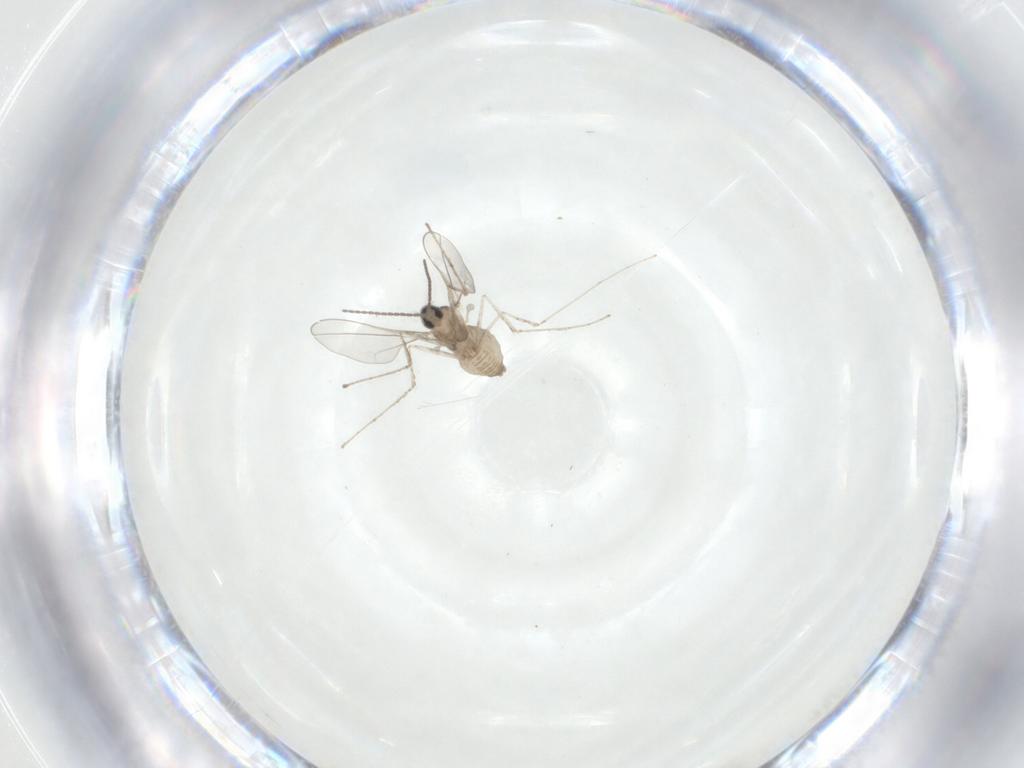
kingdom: Animalia
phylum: Arthropoda
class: Insecta
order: Diptera
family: Cecidomyiidae
